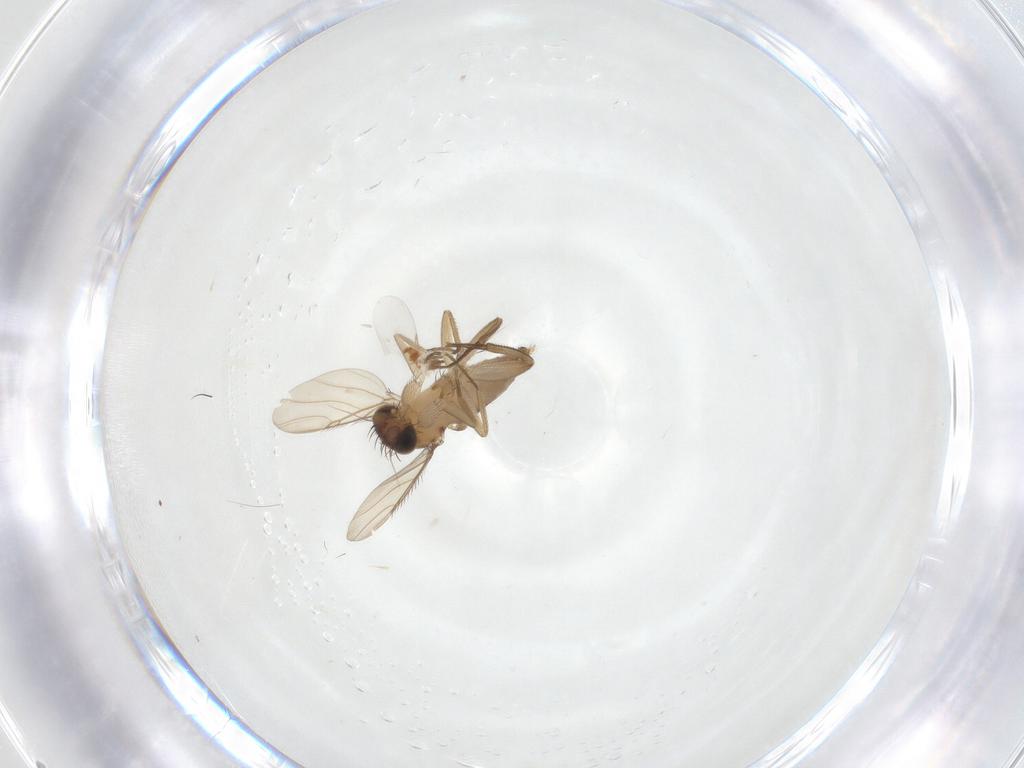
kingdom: Animalia
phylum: Arthropoda
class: Insecta
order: Diptera
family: Phoridae
